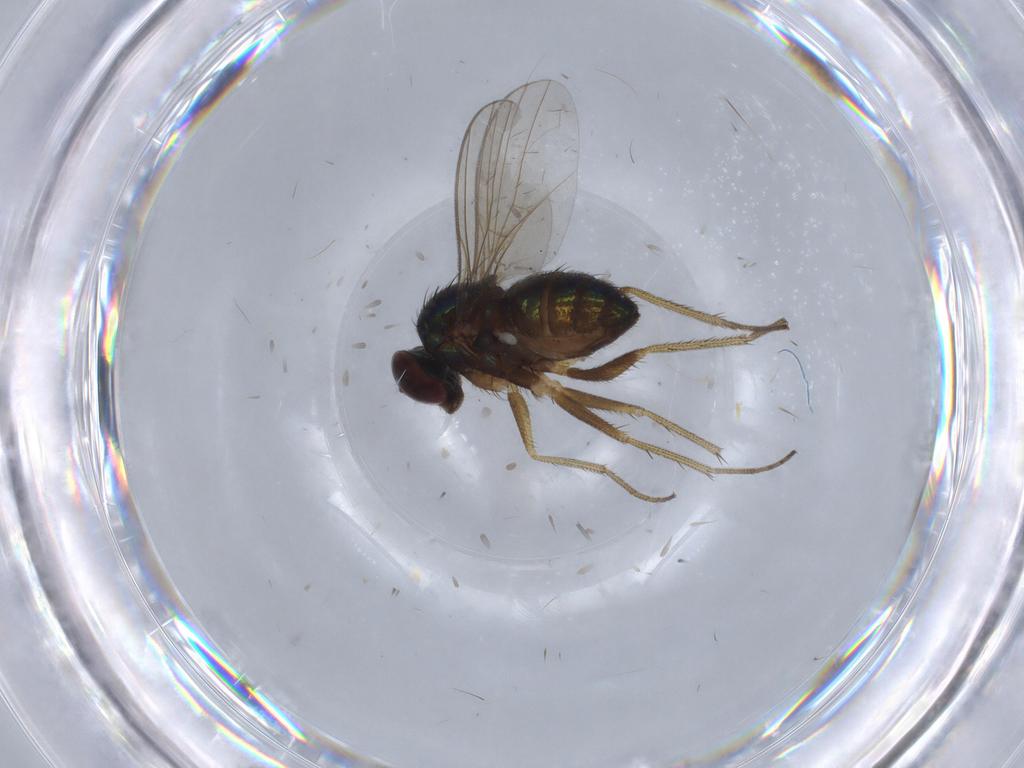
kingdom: Animalia
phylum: Arthropoda
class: Insecta
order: Diptera
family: Dolichopodidae
